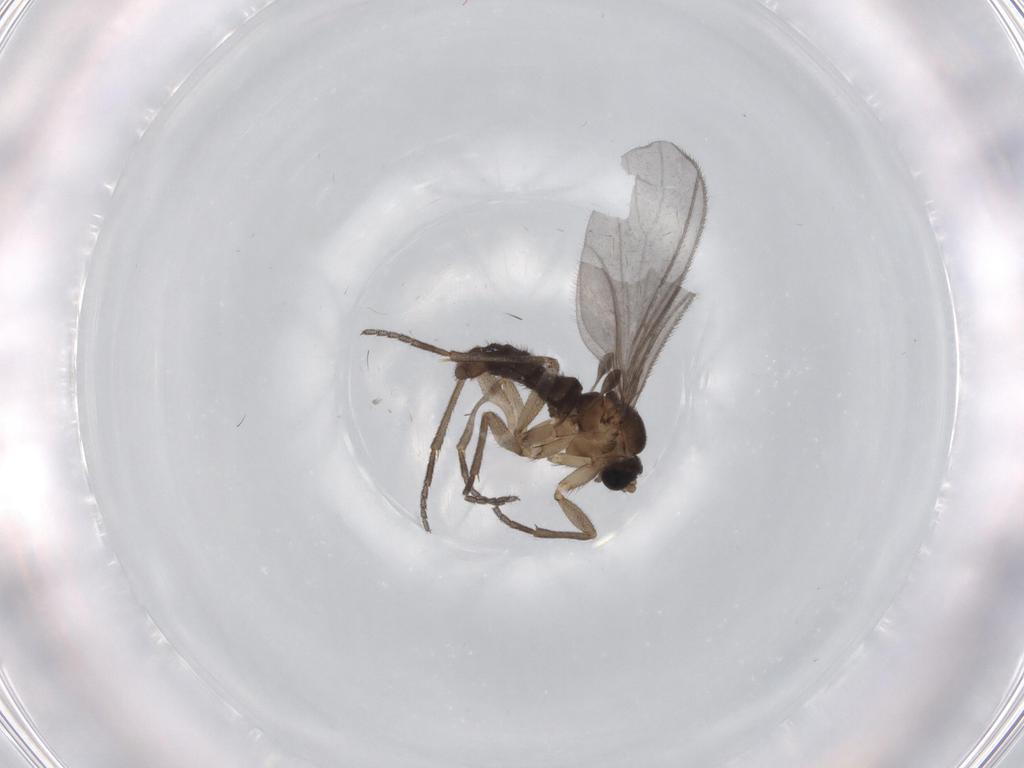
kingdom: Animalia
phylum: Arthropoda
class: Insecta
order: Diptera
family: Sciaridae
